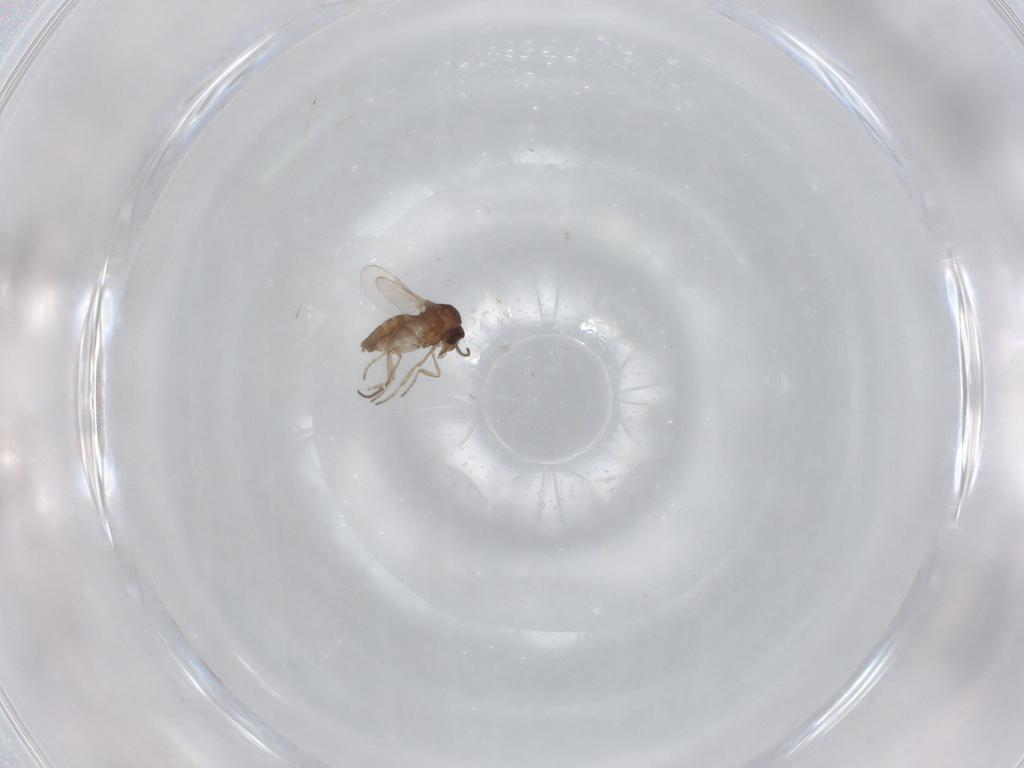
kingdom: Animalia
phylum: Arthropoda
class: Insecta
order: Diptera
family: Ceratopogonidae
